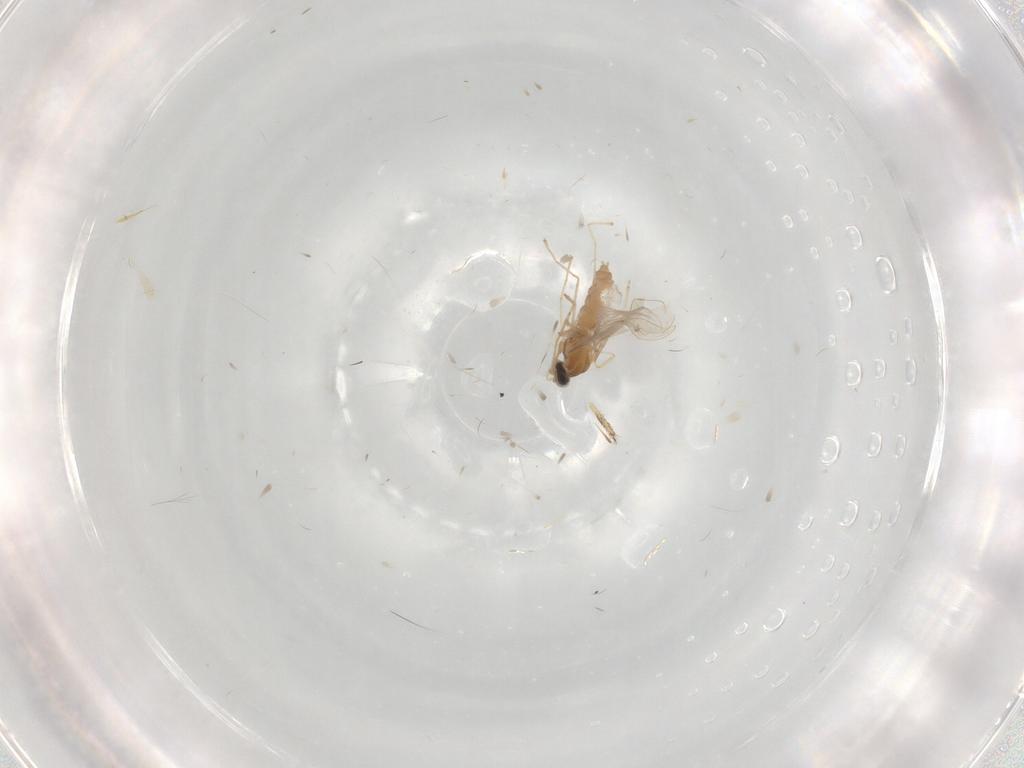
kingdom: Animalia
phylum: Arthropoda
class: Insecta
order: Diptera
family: Cecidomyiidae
